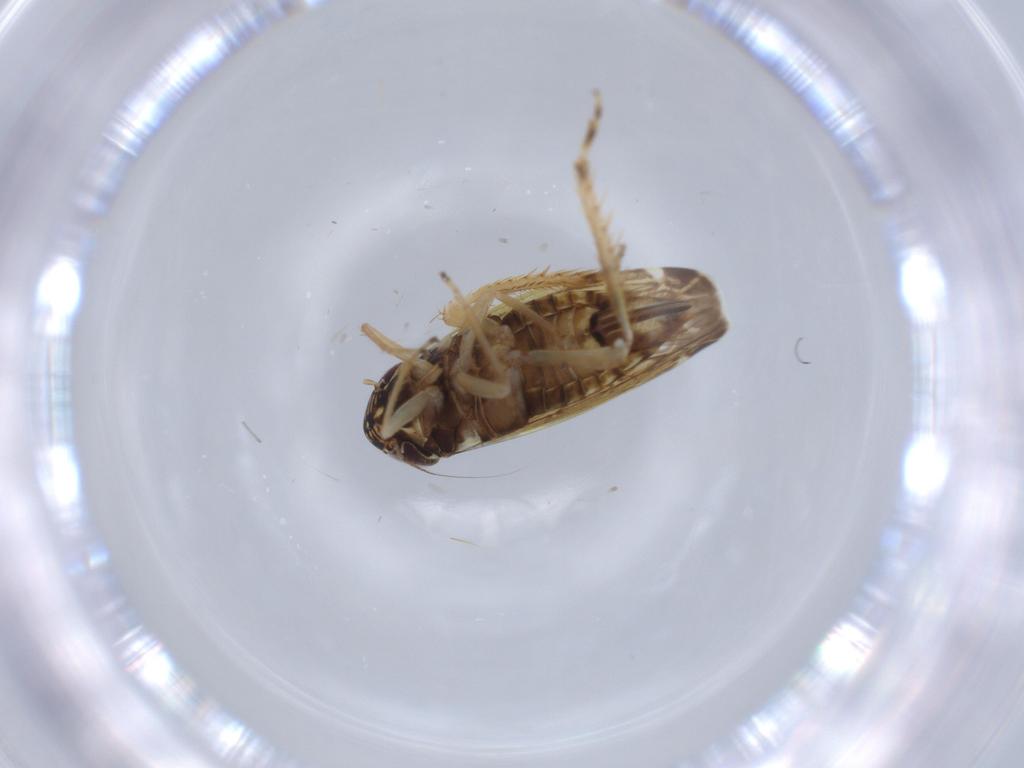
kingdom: Animalia
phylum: Arthropoda
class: Insecta
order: Hemiptera
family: Cicadellidae
